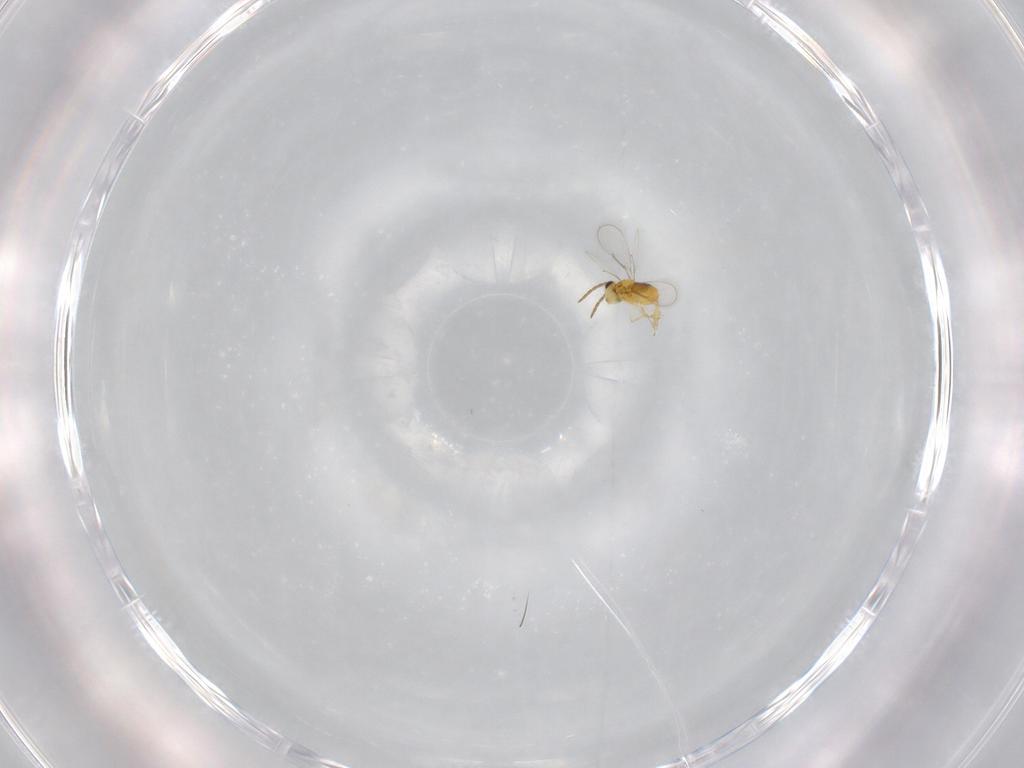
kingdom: Animalia
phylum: Arthropoda
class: Insecta
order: Hymenoptera
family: Aphelinidae
